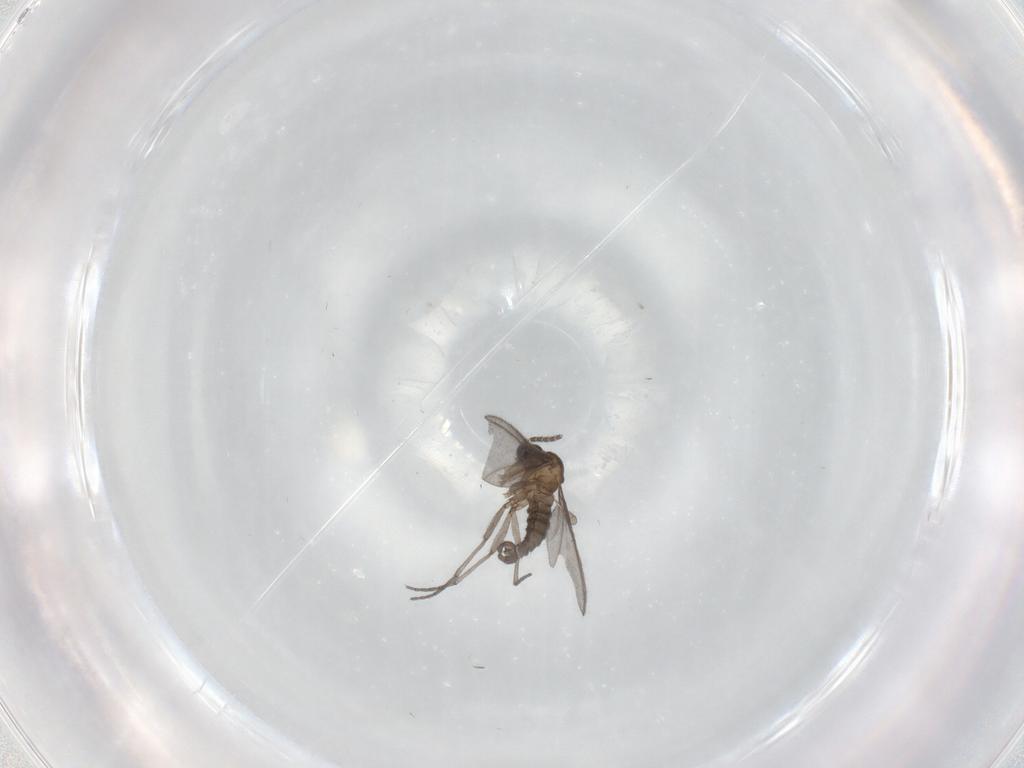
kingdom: Animalia
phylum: Arthropoda
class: Insecta
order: Diptera
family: Sciaridae
